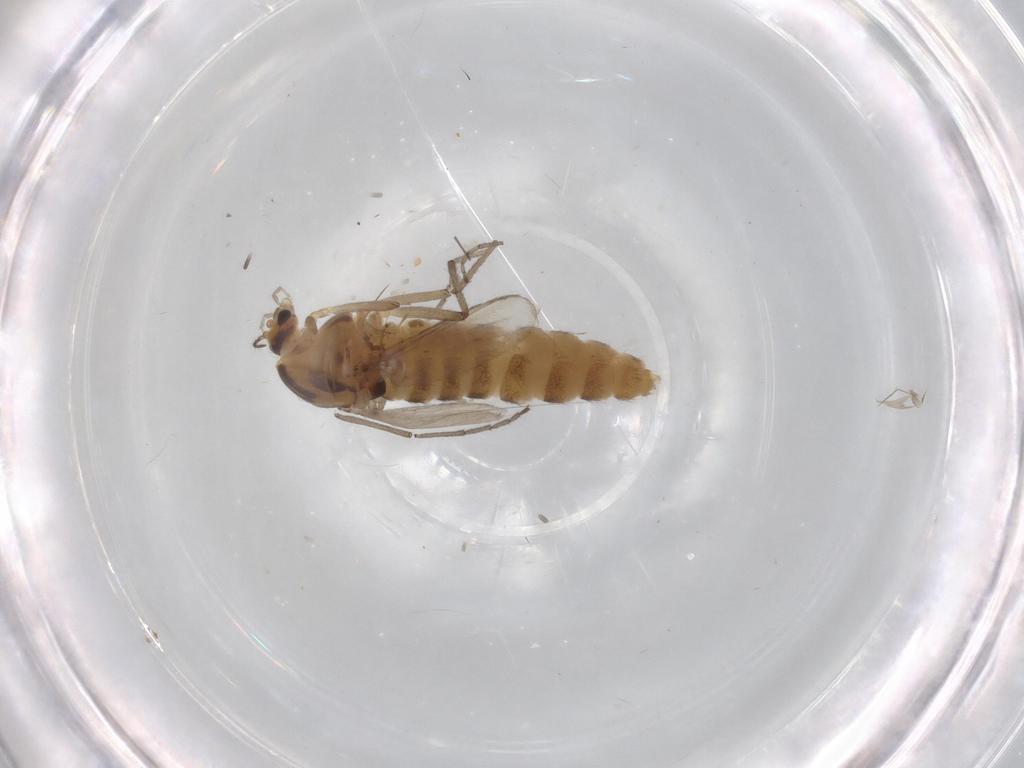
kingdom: Animalia
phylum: Arthropoda
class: Insecta
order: Diptera
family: Chironomidae
